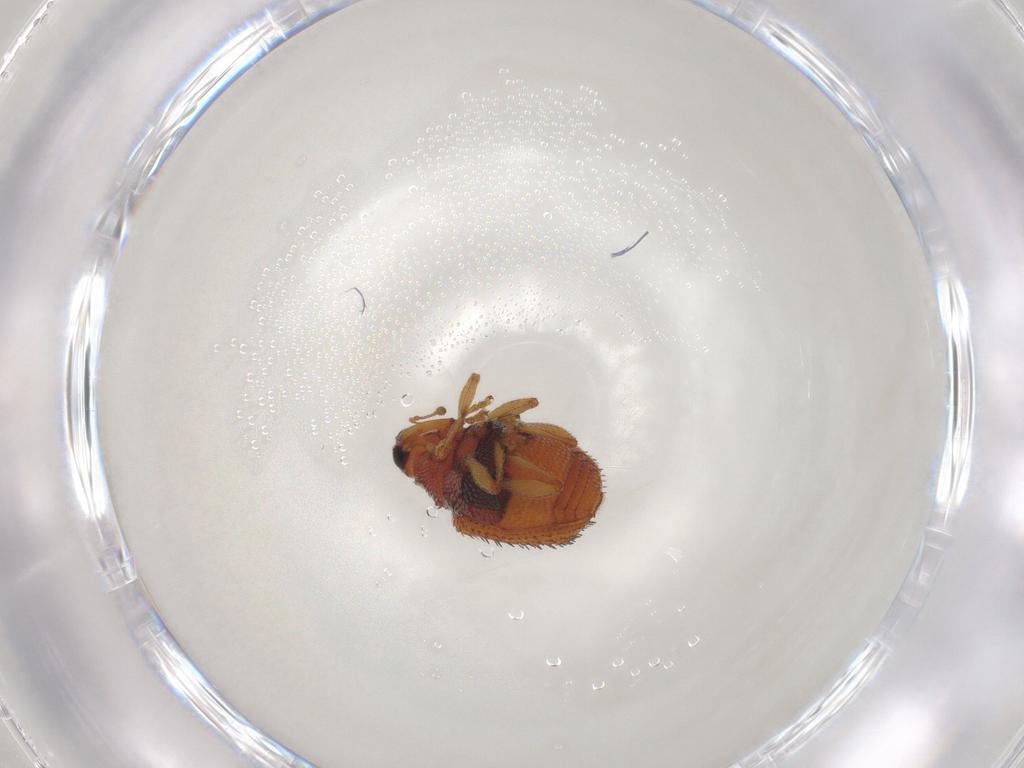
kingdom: Animalia
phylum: Arthropoda
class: Insecta
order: Coleoptera
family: Curculionidae
